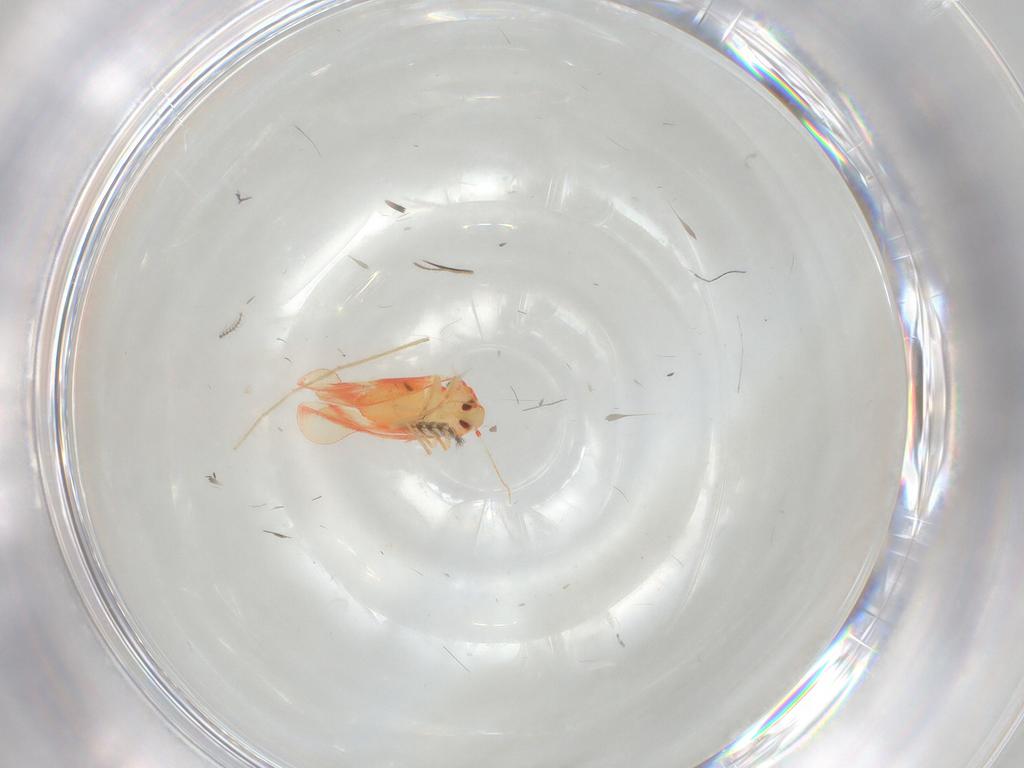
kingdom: Animalia
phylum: Arthropoda
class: Insecta
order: Hemiptera
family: Aleyrodidae
